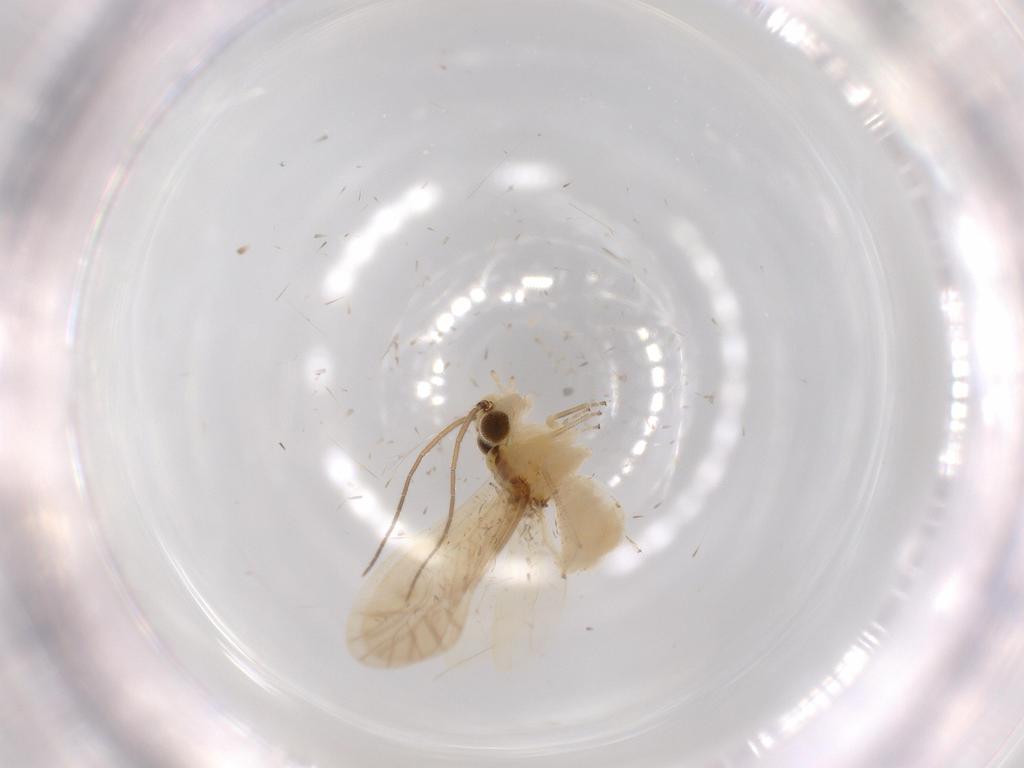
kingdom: Animalia
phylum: Arthropoda
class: Insecta
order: Psocodea
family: Caeciliusidae
